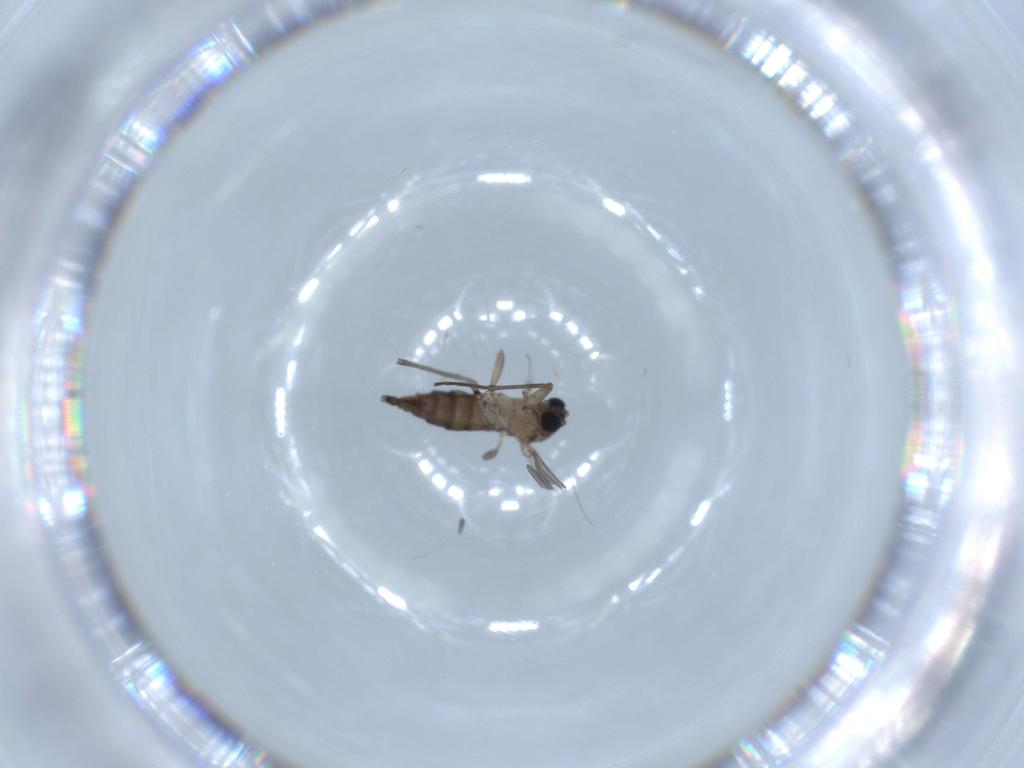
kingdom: Animalia
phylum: Arthropoda
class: Insecta
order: Diptera
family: Sciaridae
